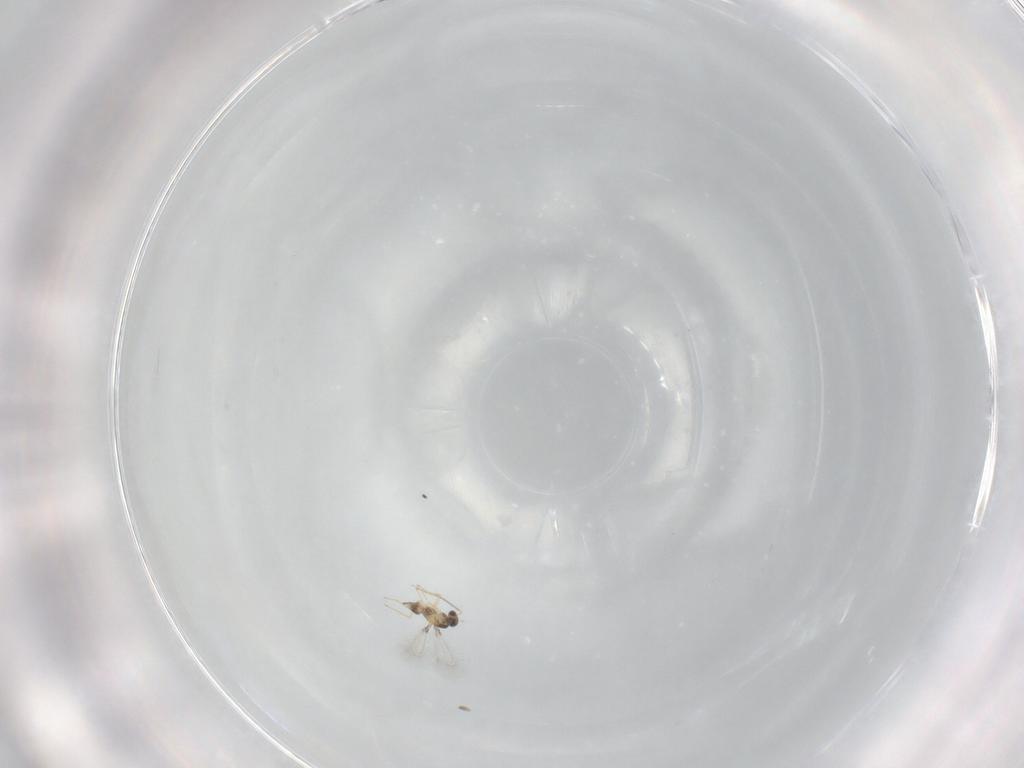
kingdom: Animalia
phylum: Arthropoda
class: Insecta
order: Hymenoptera
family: Mymaridae
